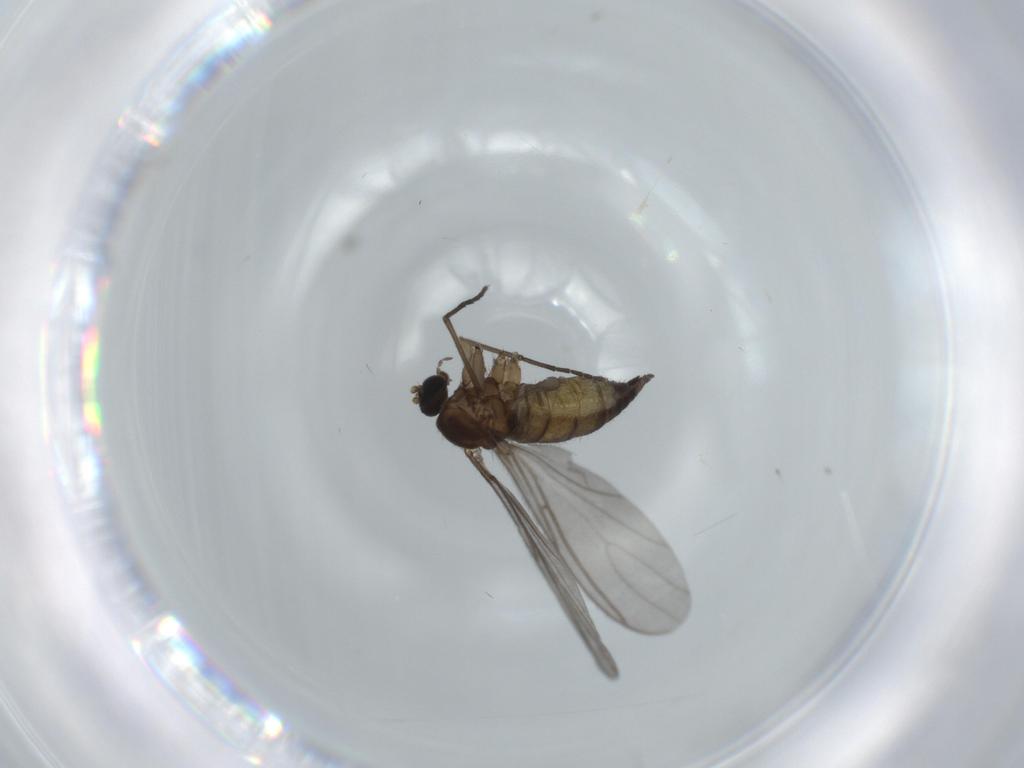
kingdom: Animalia
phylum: Arthropoda
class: Insecta
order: Diptera
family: Sciaridae
